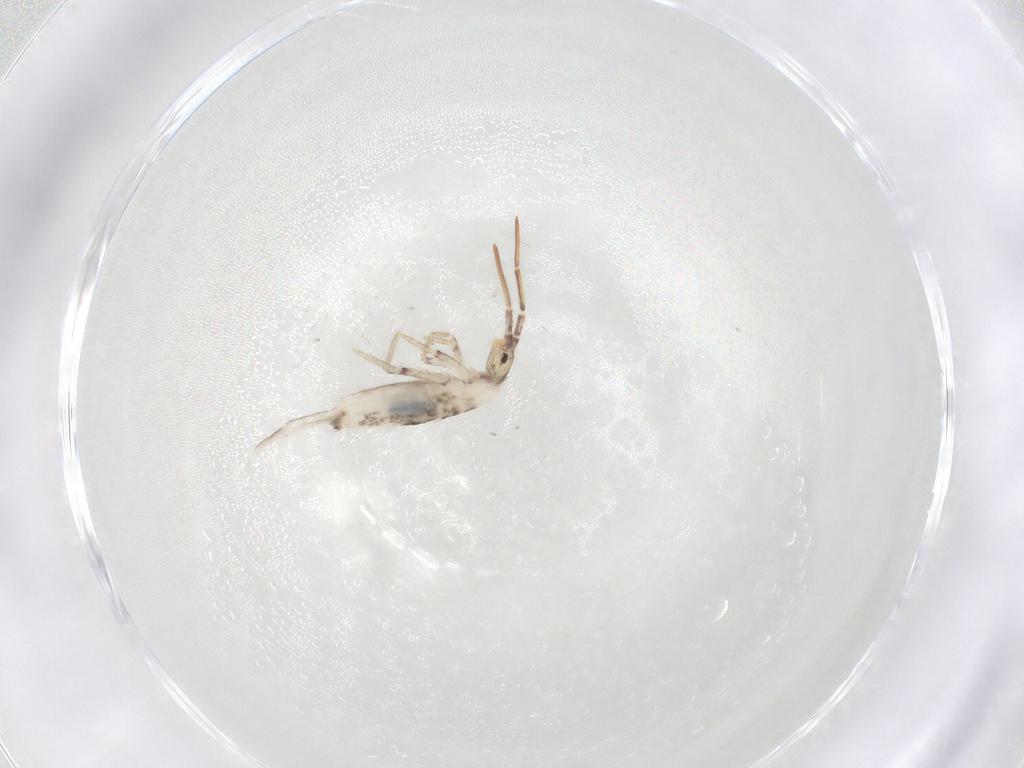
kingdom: Animalia
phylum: Arthropoda
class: Collembola
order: Entomobryomorpha
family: Entomobryidae
